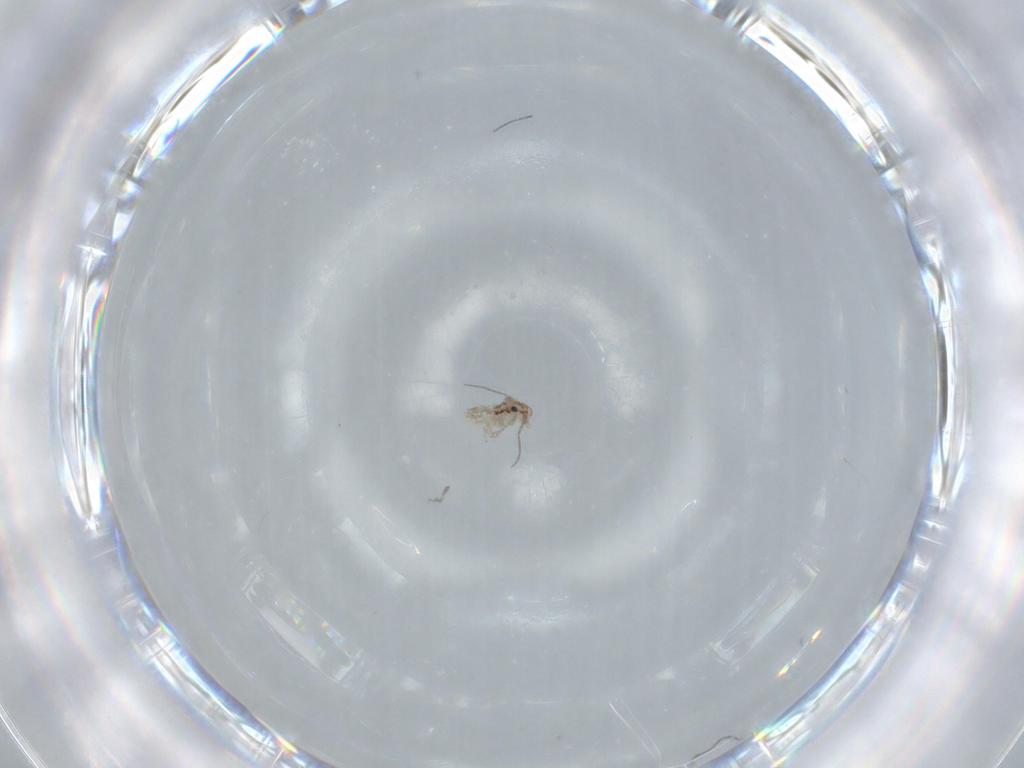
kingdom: Animalia
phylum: Arthropoda
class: Insecta
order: Psocodea
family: Lepidopsocidae
